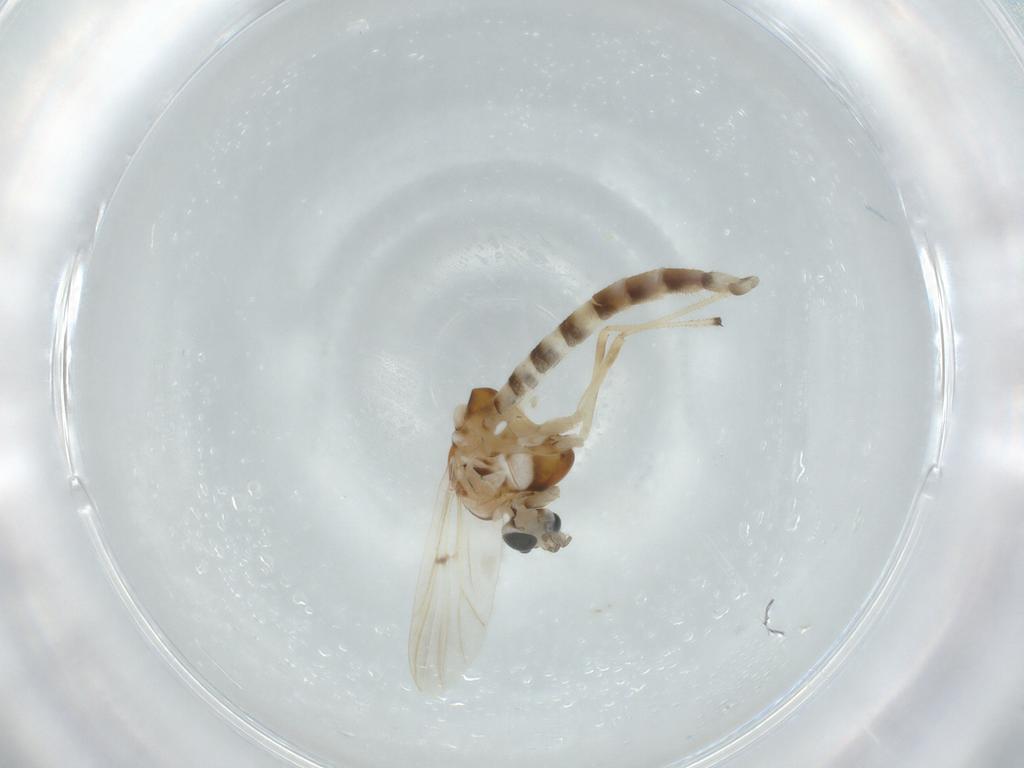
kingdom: Animalia
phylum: Arthropoda
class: Insecta
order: Diptera
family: Chironomidae
